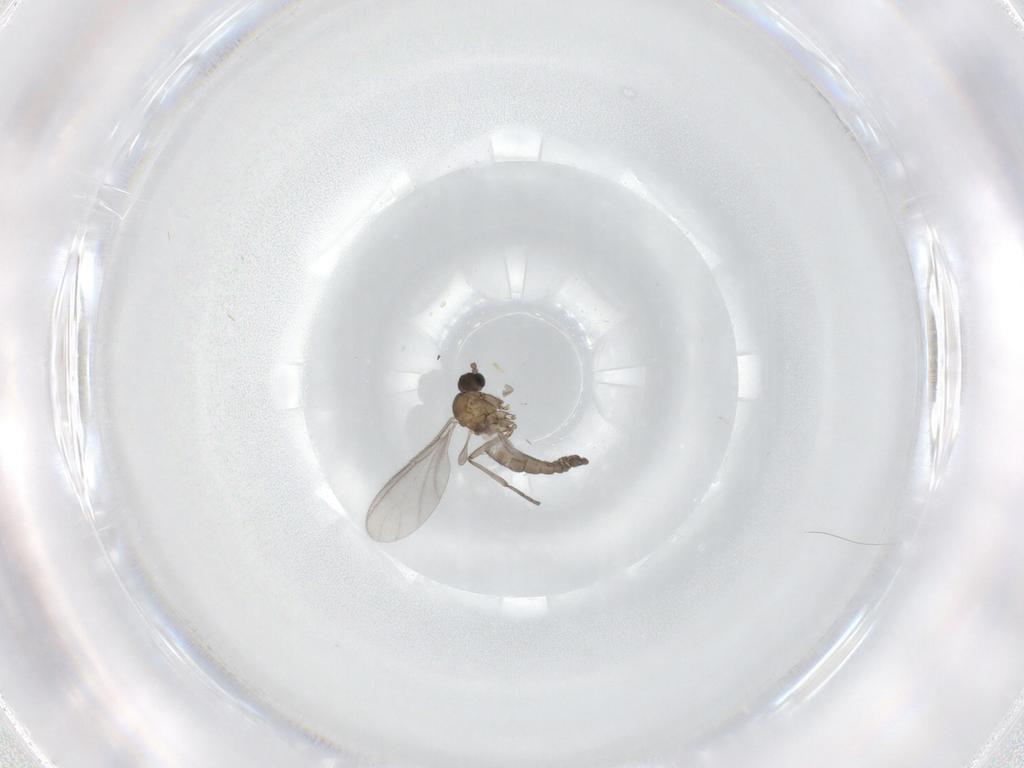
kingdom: Animalia
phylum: Arthropoda
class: Insecta
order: Diptera
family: Sciaridae
